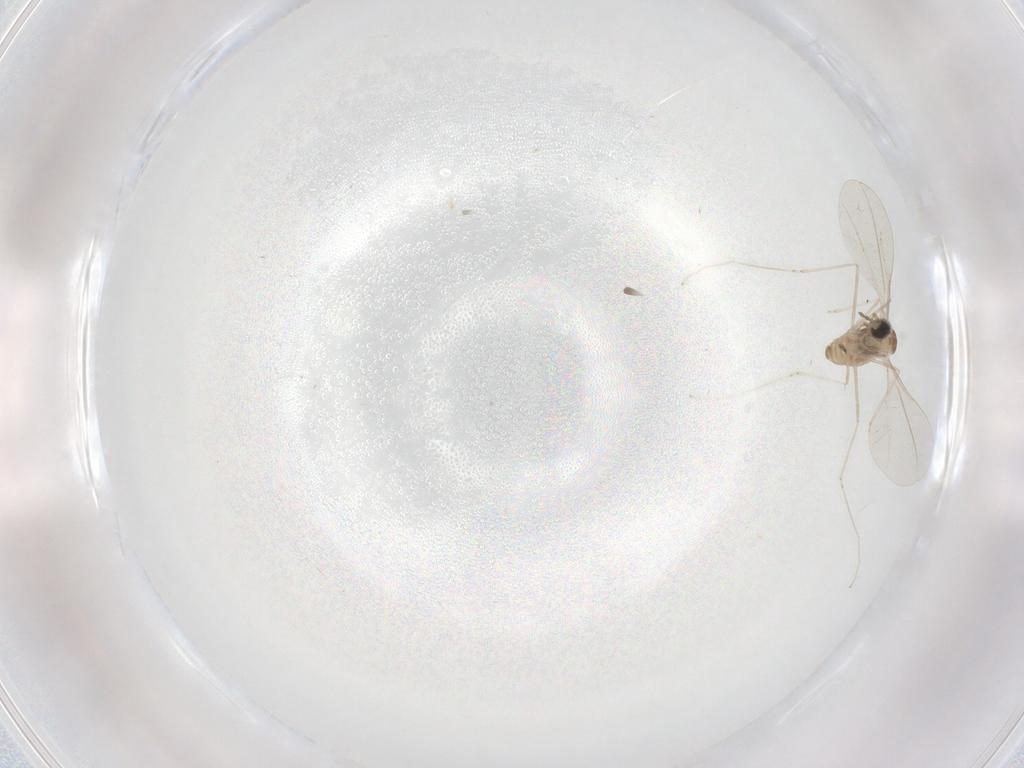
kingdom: Animalia
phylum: Arthropoda
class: Insecta
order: Diptera
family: Cecidomyiidae
